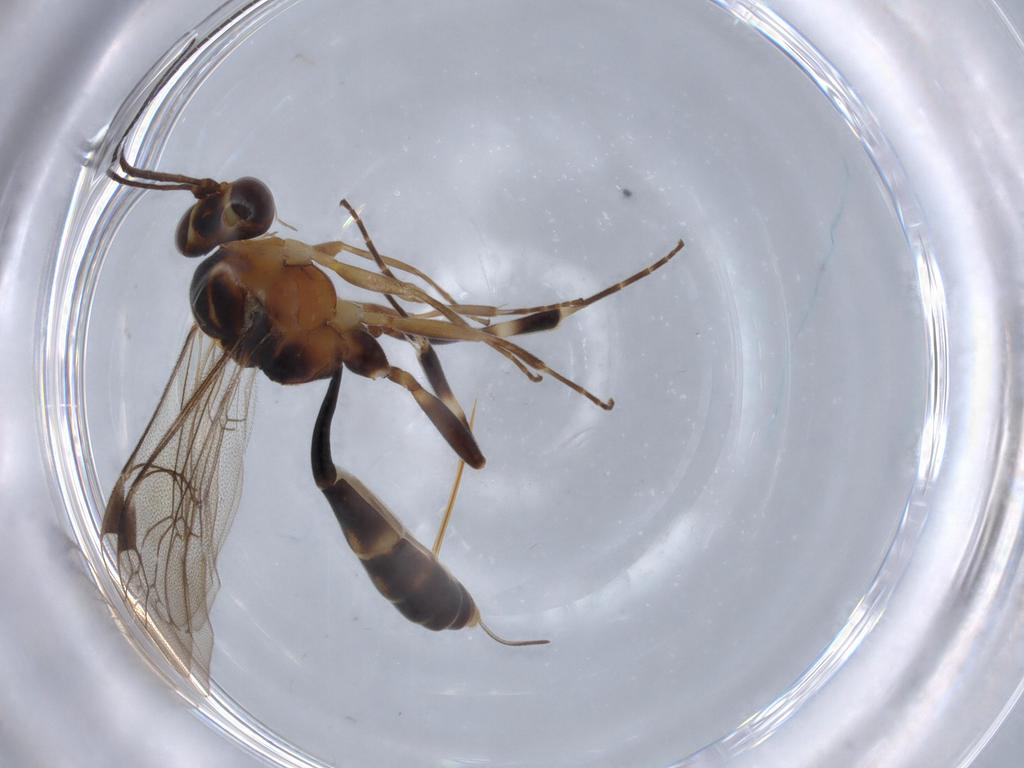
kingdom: Animalia
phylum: Arthropoda
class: Insecta
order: Hymenoptera
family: Ichneumonidae
